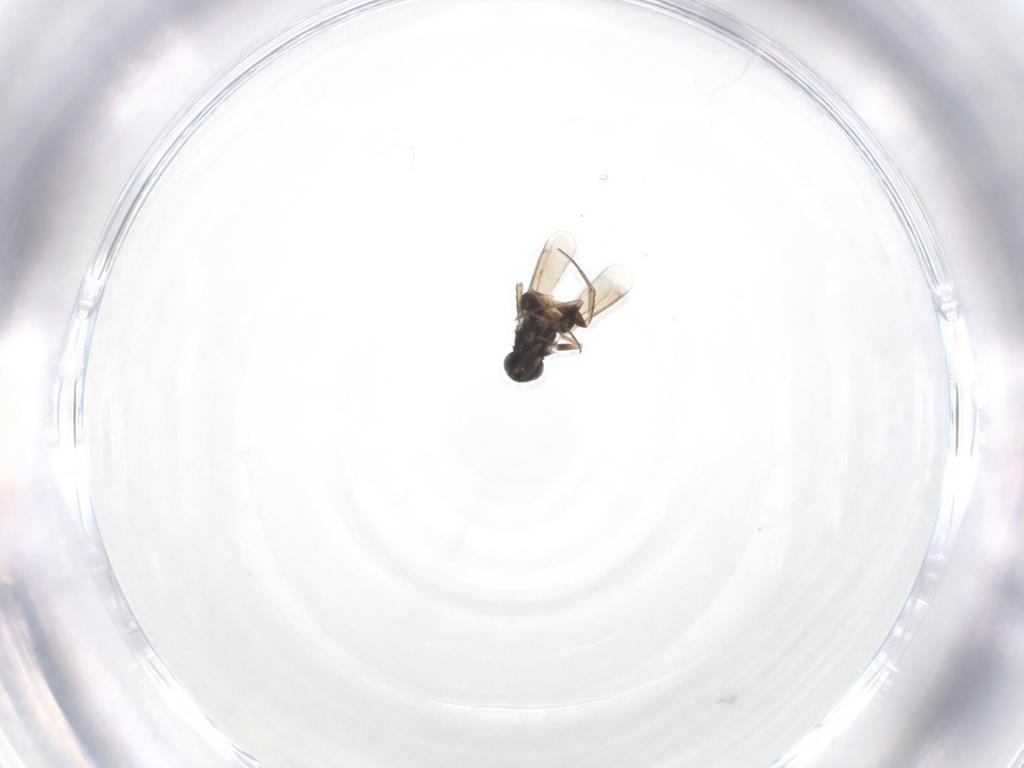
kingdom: Animalia
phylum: Arthropoda
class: Insecta
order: Hymenoptera
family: Eulophidae
